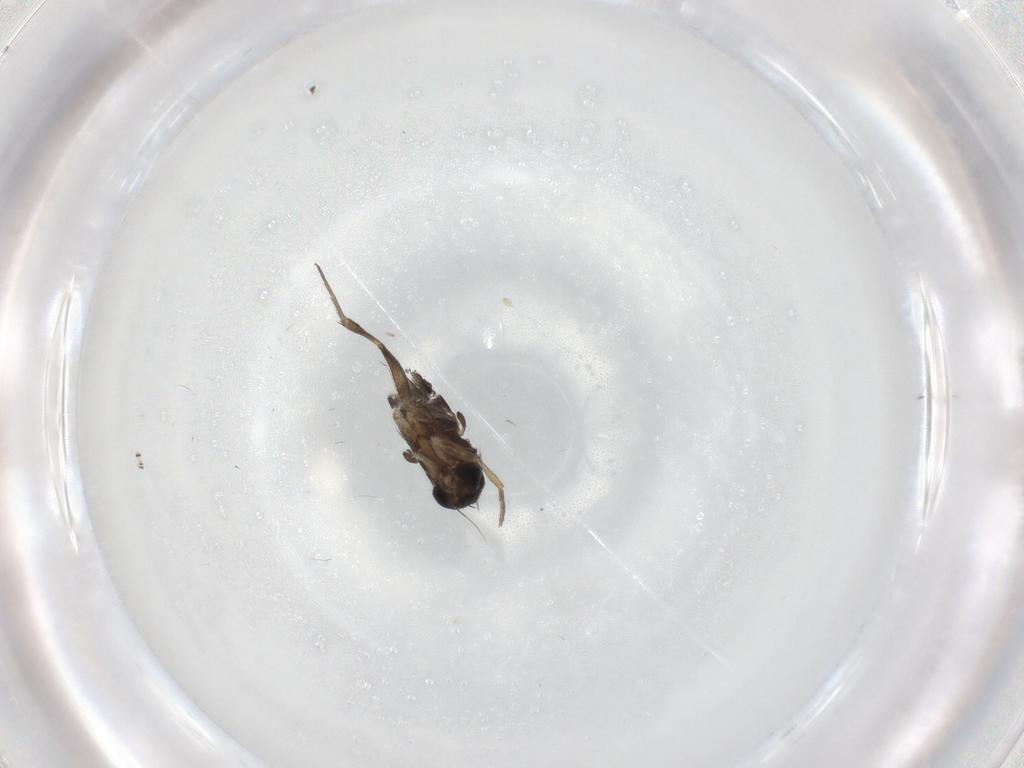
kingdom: Animalia
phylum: Arthropoda
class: Insecta
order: Diptera
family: Phoridae
